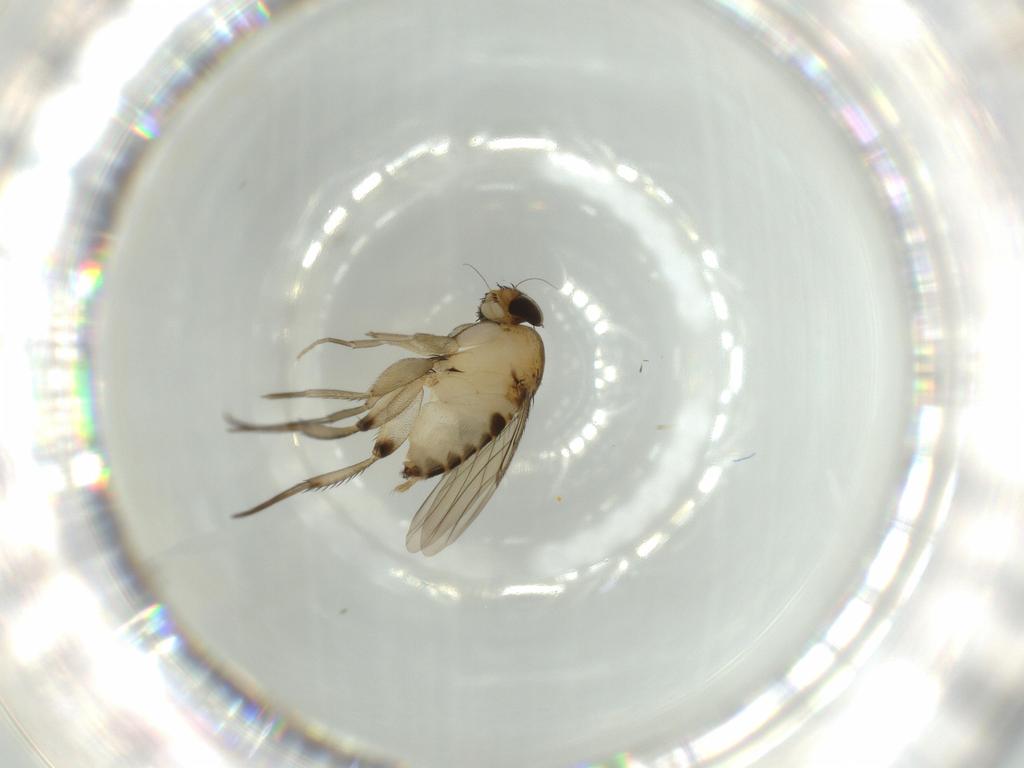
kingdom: Animalia
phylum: Arthropoda
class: Insecta
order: Diptera
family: Phoridae
